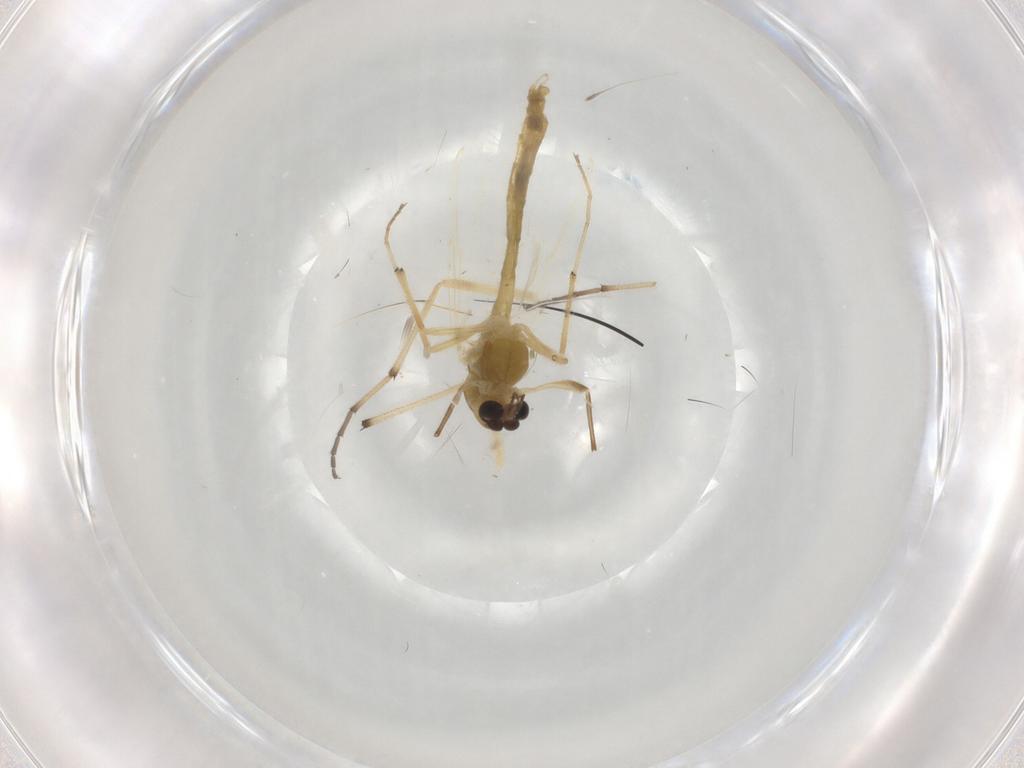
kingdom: Animalia
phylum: Arthropoda
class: Insecta
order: Diptera
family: Chironomidae
